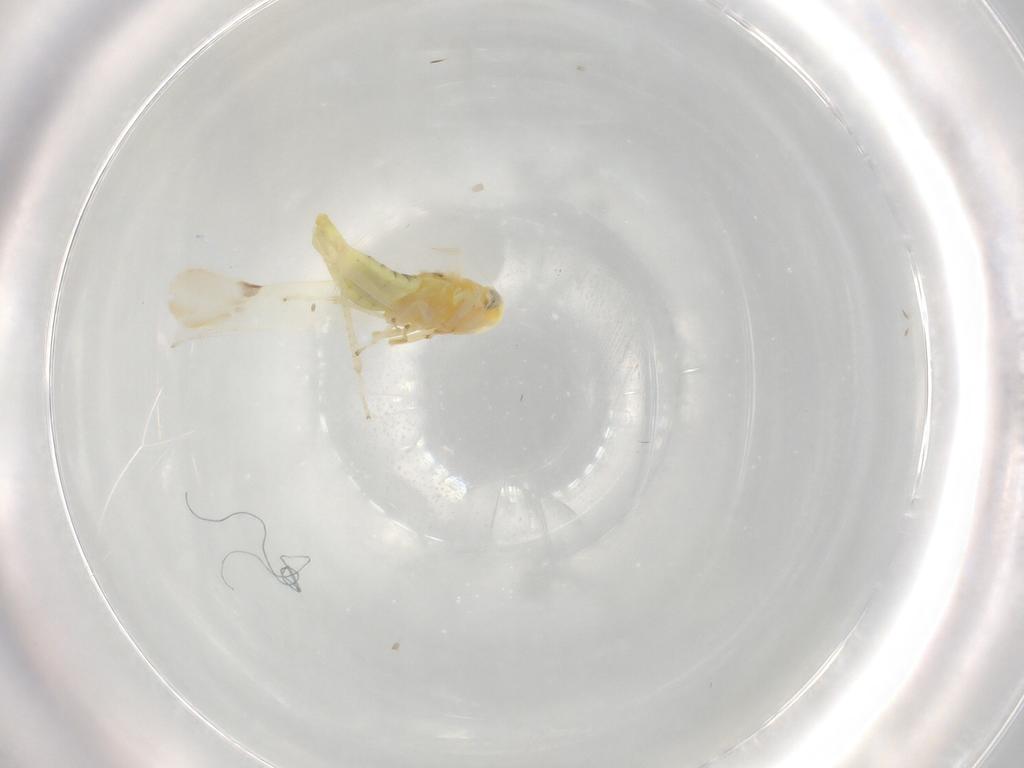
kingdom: Animalia
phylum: Arthropoda
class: Insecta
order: Hemiptera
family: Cicadellidae
